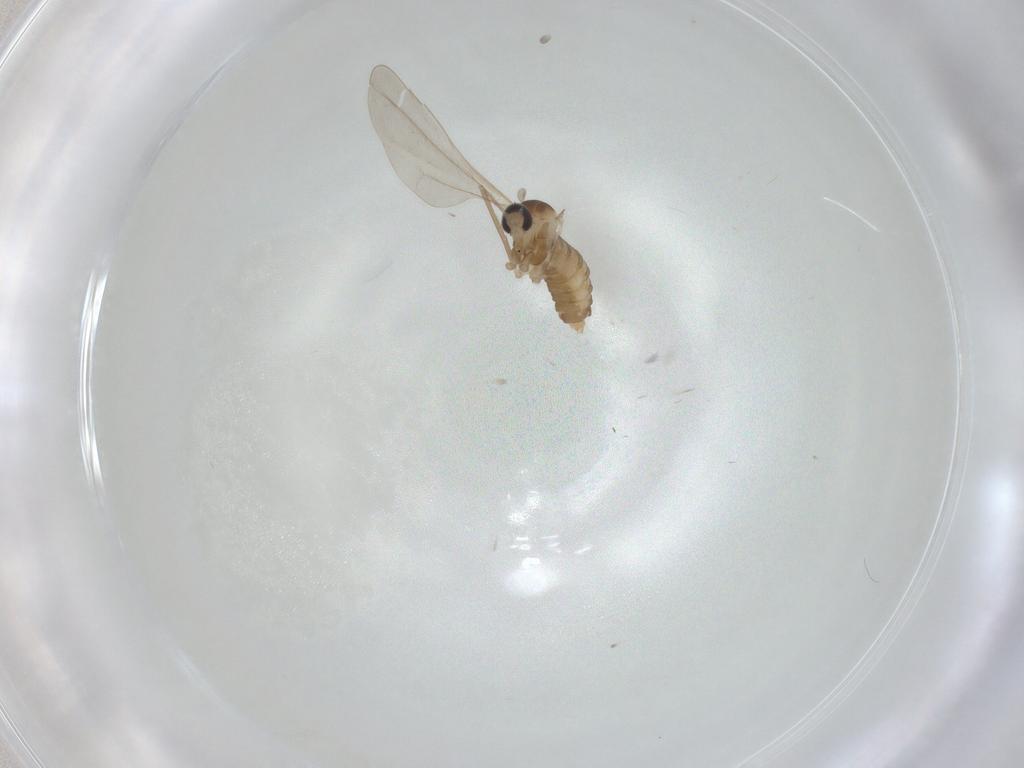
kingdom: Animalia
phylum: Arthropoda
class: Insecta
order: Diptera
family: Cecidomyiidae
